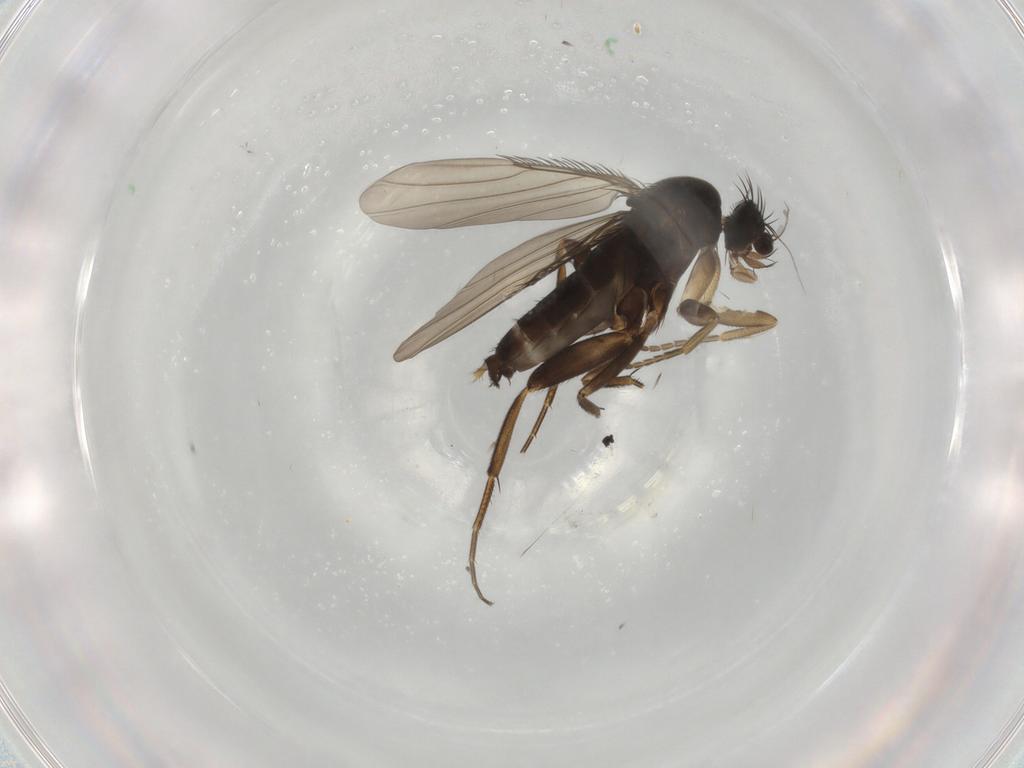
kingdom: Animalia
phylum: Arthropoda
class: Insecta
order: Diptera
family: Phoridae
